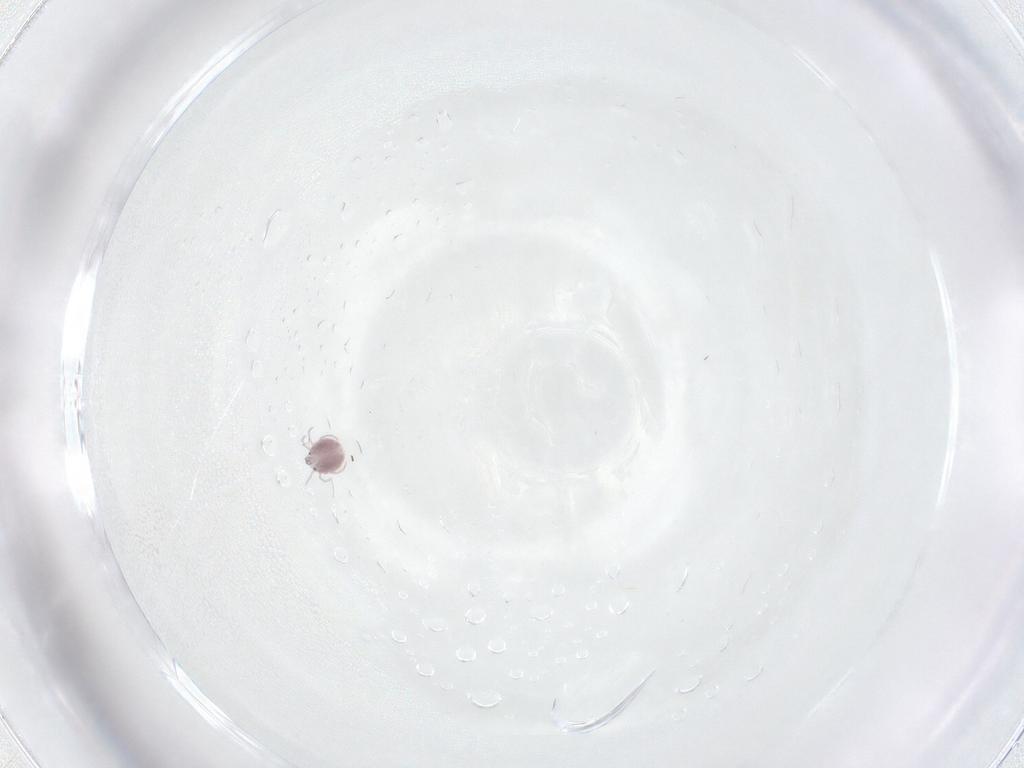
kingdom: Animalia
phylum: Arthropoda
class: Arachnida
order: Trombidiformes
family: Pionidae
